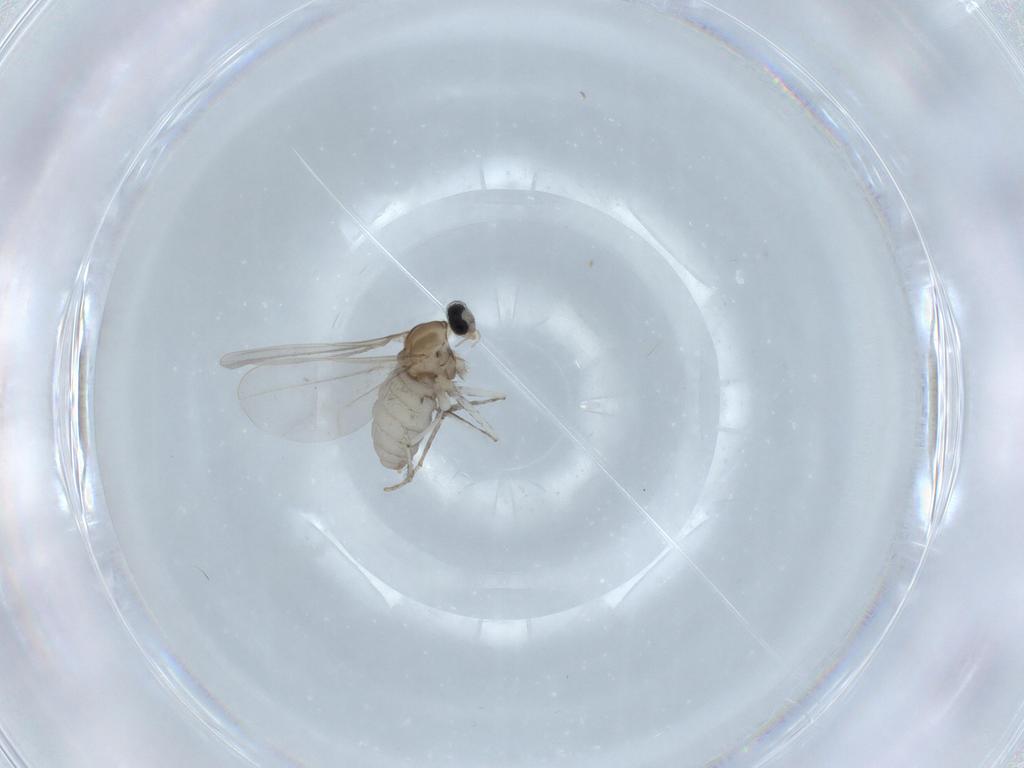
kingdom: Animalia
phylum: Arthropoda
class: Insecta
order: Diptera
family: Cecidomyiidae
